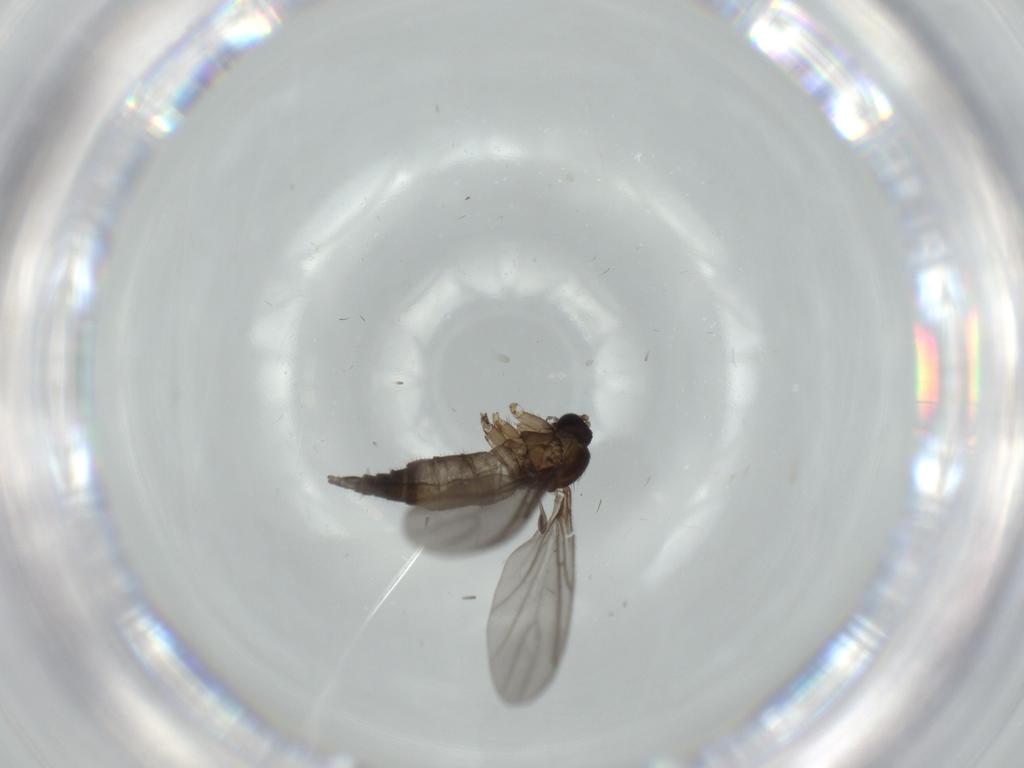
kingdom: Animalia
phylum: Arthropoda
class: Insecta
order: Diptera
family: Sciaridae
